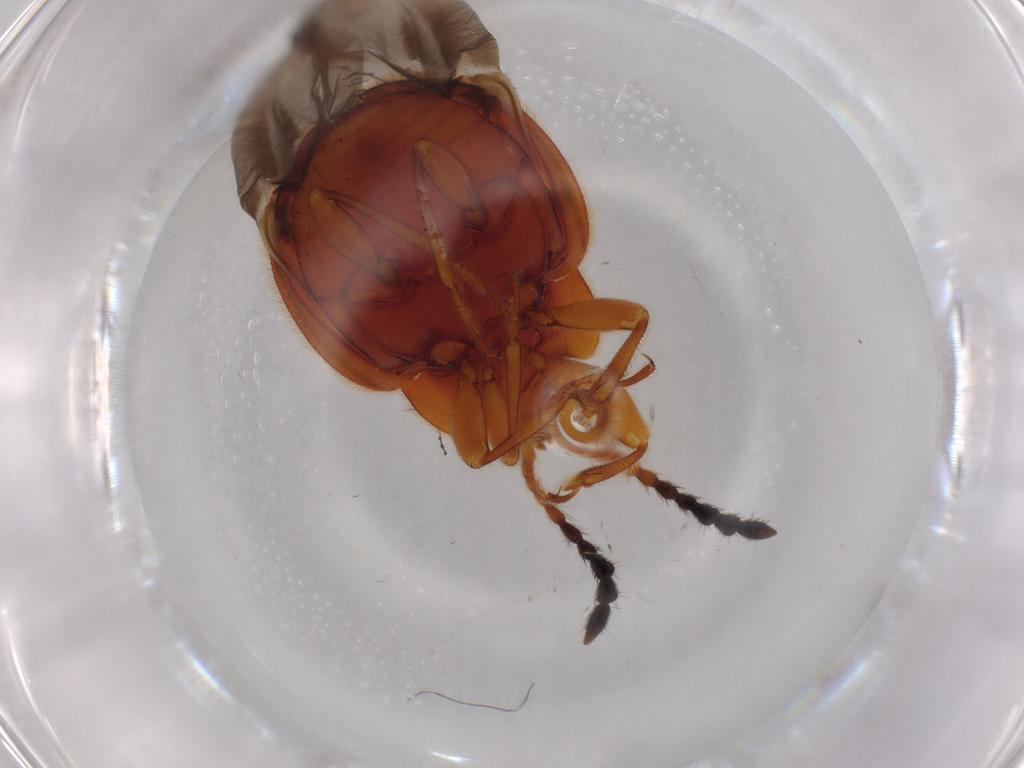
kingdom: Animalia
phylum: Arthropoda
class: Insecta
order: Coleoptera
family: Endomychidae
